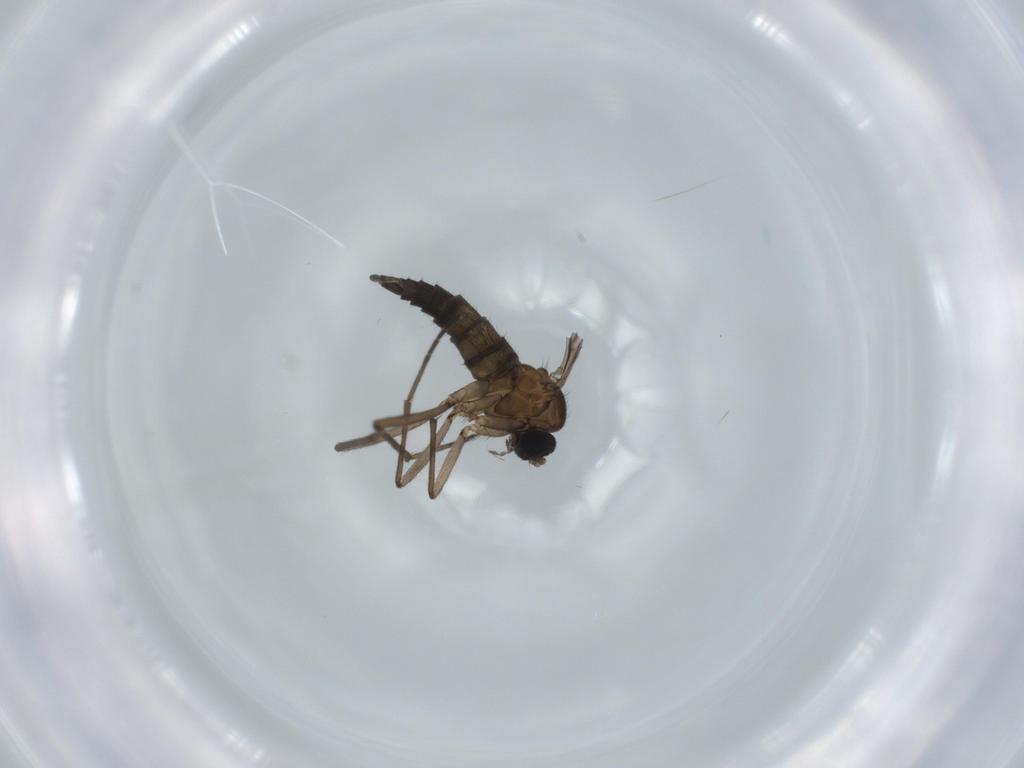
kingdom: Animalia
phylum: Arthropoda
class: Insecta
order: Diptera
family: Sciaridae
